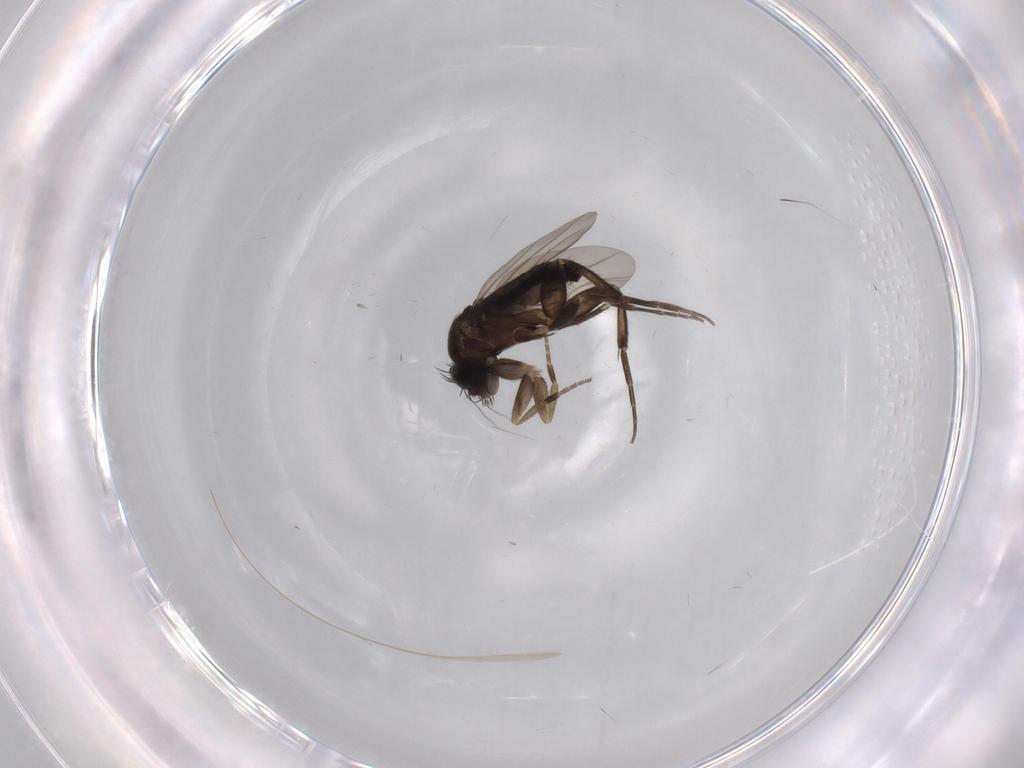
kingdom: Animalia
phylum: Arthropoda
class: Insecta
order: Diptera
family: Phoridae
